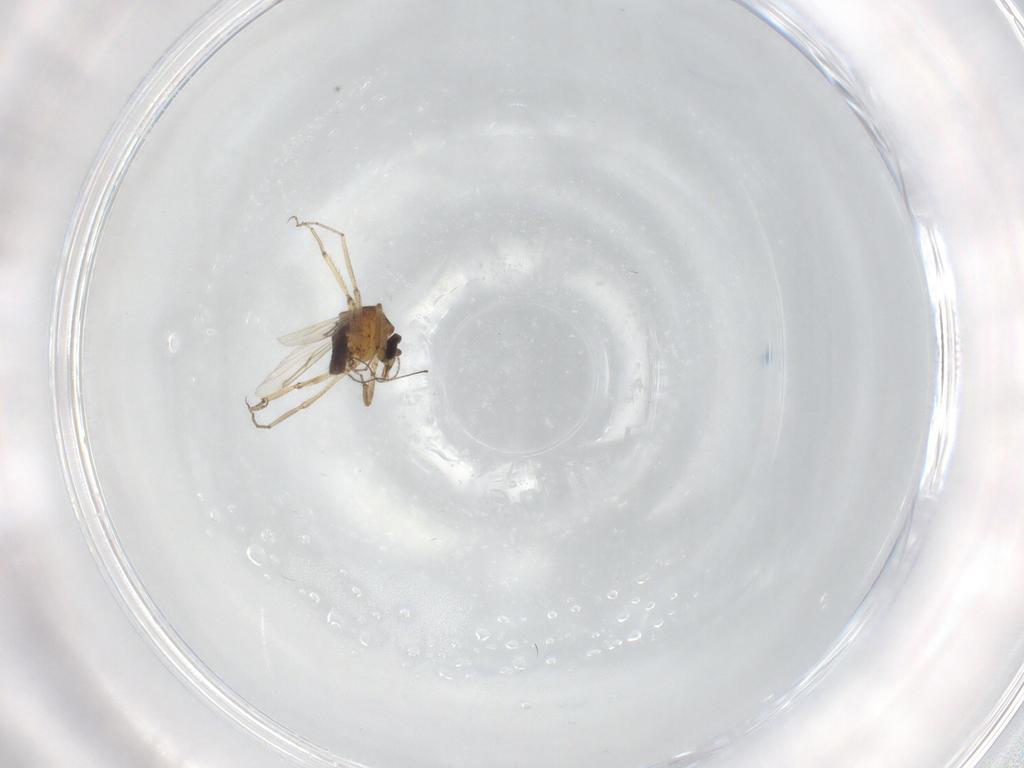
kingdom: Animalia
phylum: Arthropoda
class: Insecta
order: Diptera
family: Ceratopogonidae
